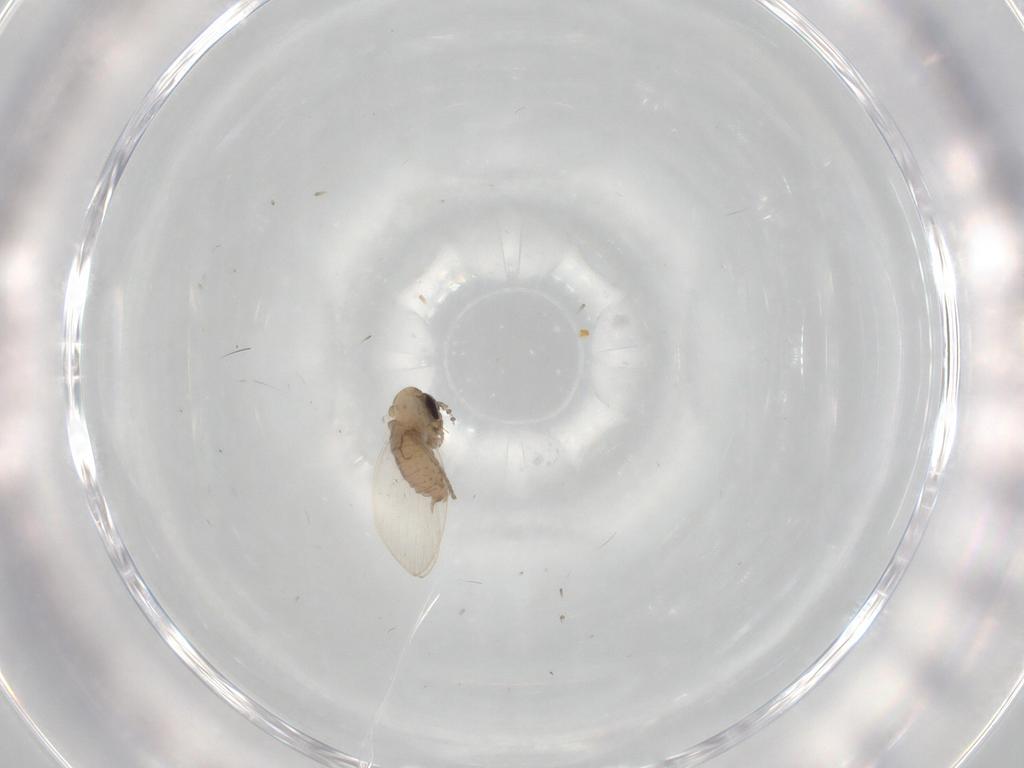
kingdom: Animalia
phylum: Arthropoda
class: Insecta
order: Diptera
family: Psychodidae
